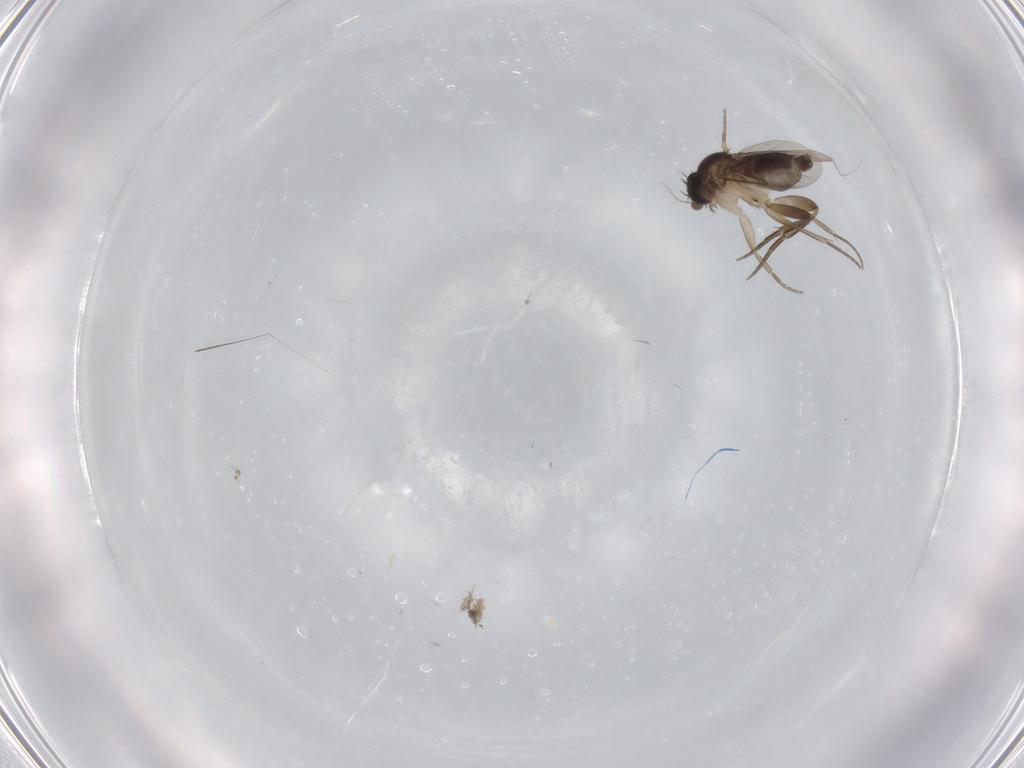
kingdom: Animalia
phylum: Arthropoda
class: Insecta
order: Diptera
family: Phoridae
